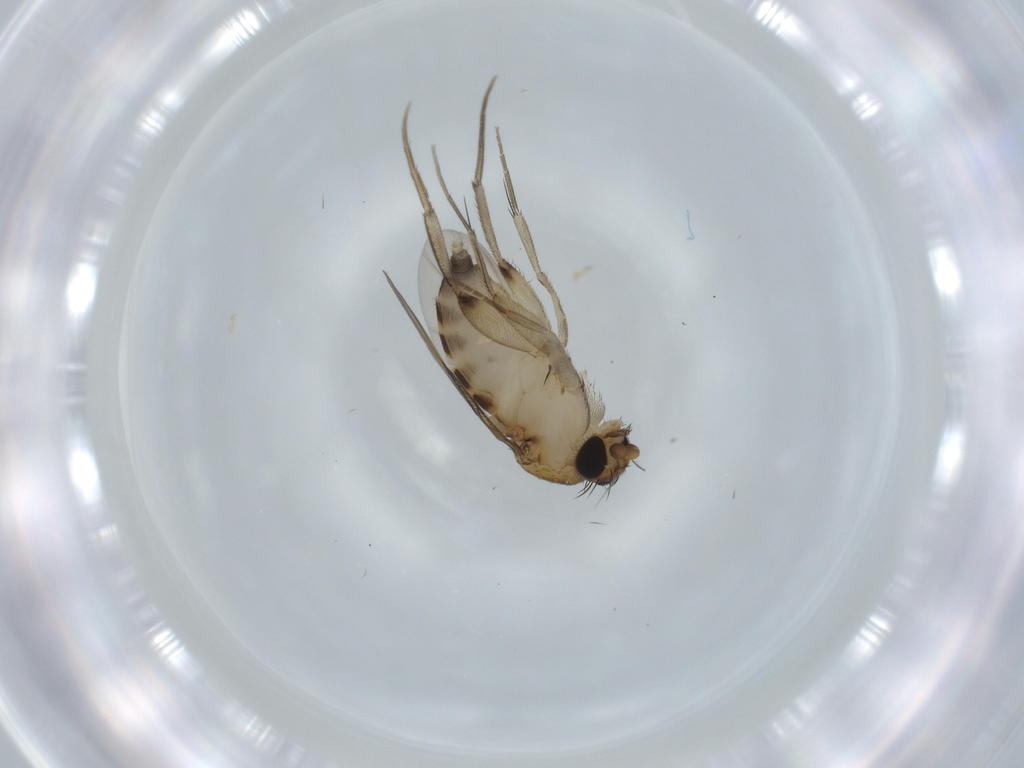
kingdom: Animalia
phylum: Arthropoda
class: Insecta
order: Diptera
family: Phoridae
